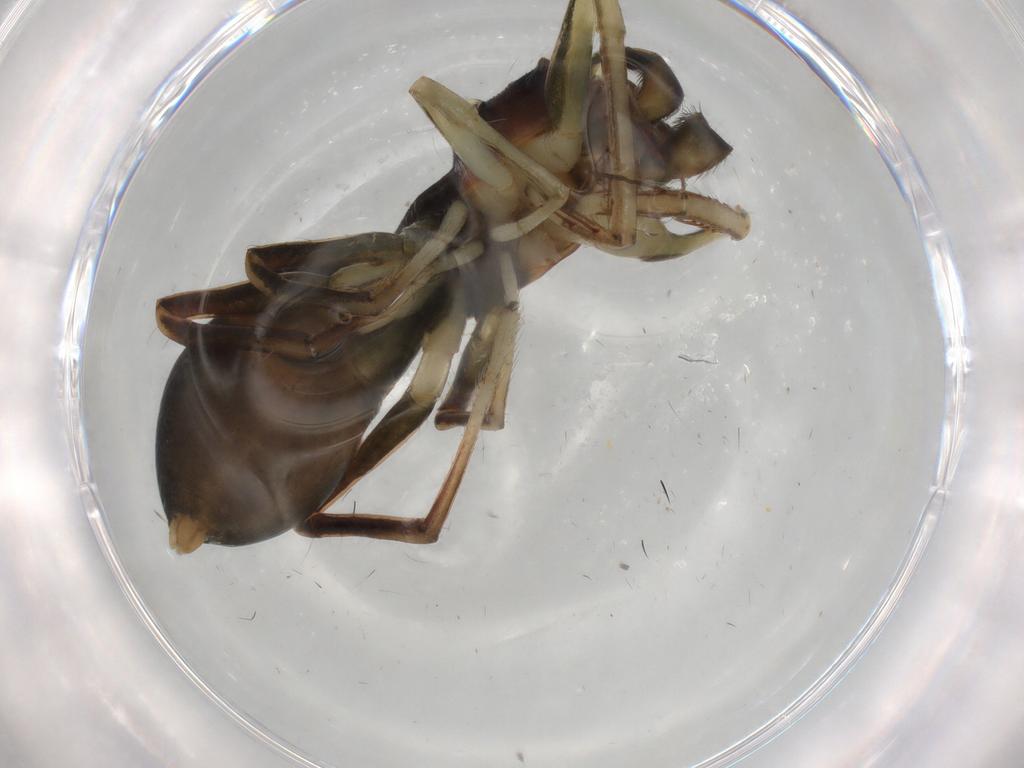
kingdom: Animalia
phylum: Arthropoda
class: Arachnida
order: Araneae
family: Salticidae
